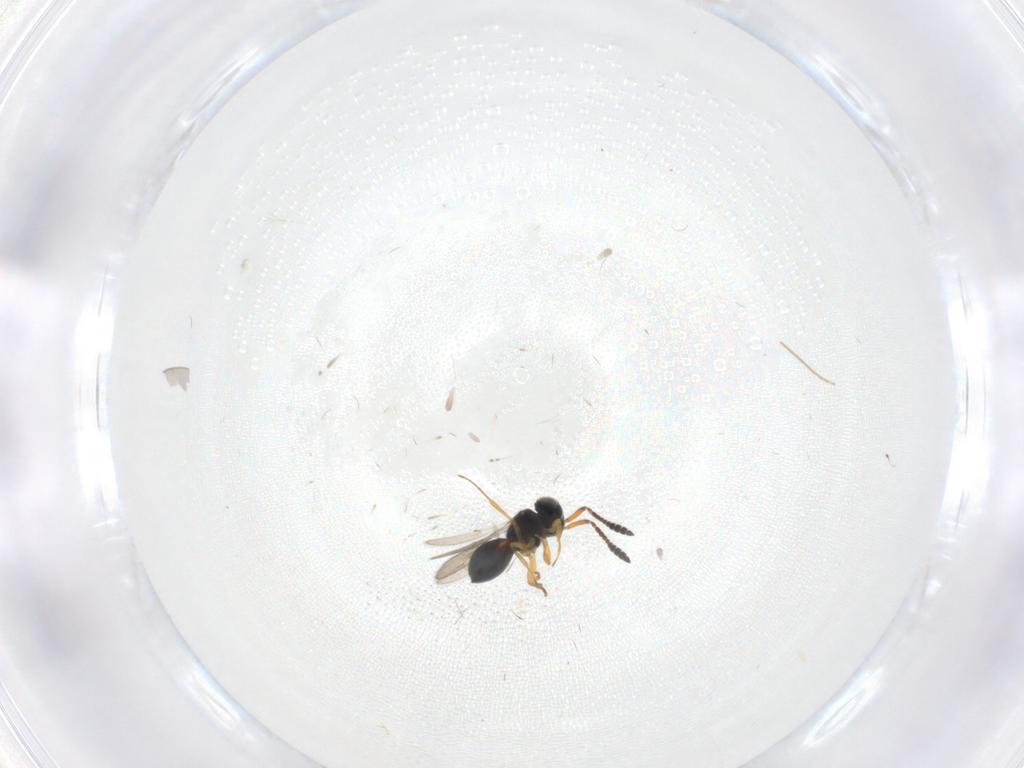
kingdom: Animalia
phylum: Arthropoda
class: Insecta
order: Hymenoptera
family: Scelionidae
